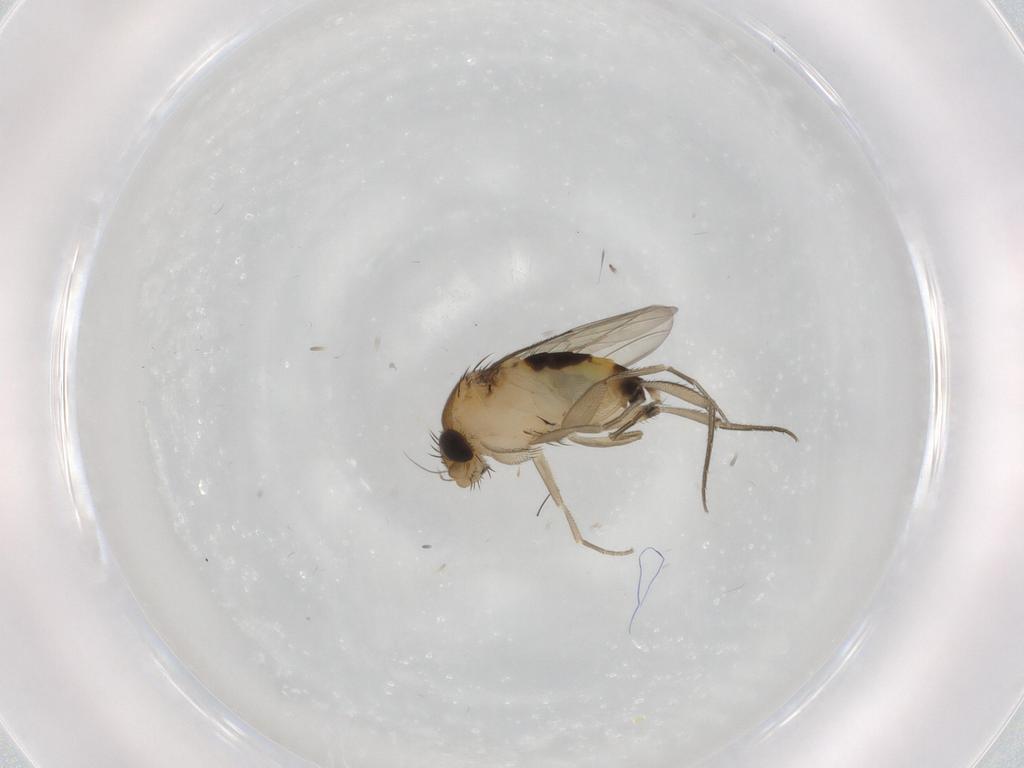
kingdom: Animalia
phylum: Arthropoda
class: Insecta
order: Diptera
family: Phoridae
